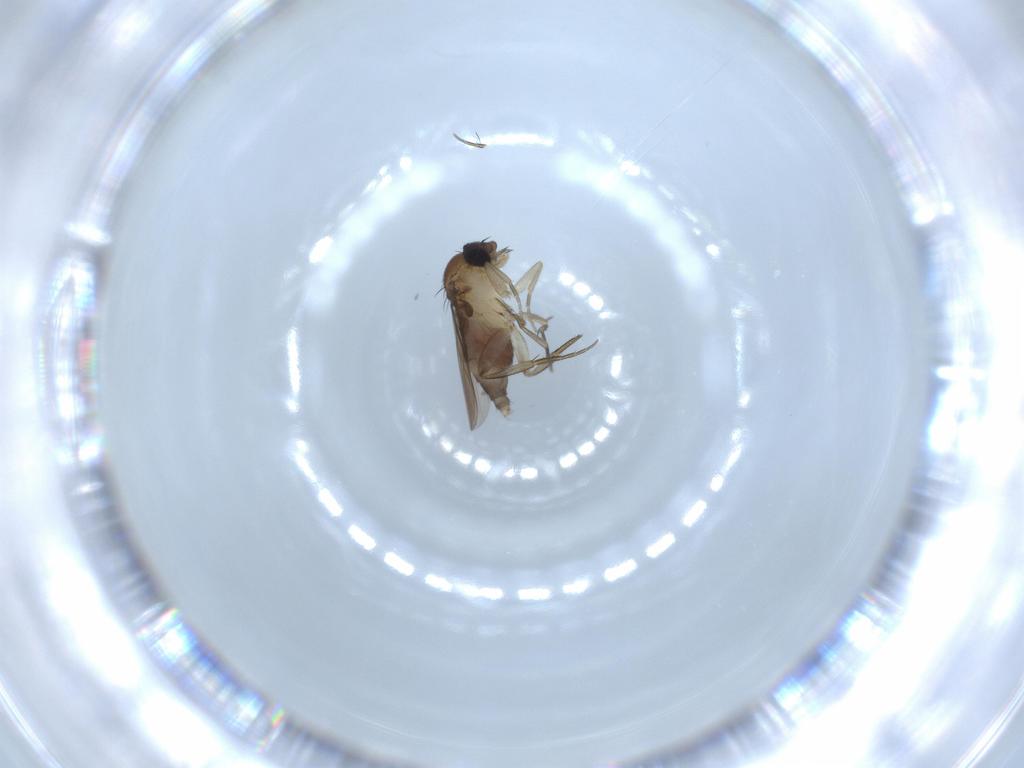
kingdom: Animalia
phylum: Arthropoda
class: Insecta
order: Diptera
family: Phoridae
